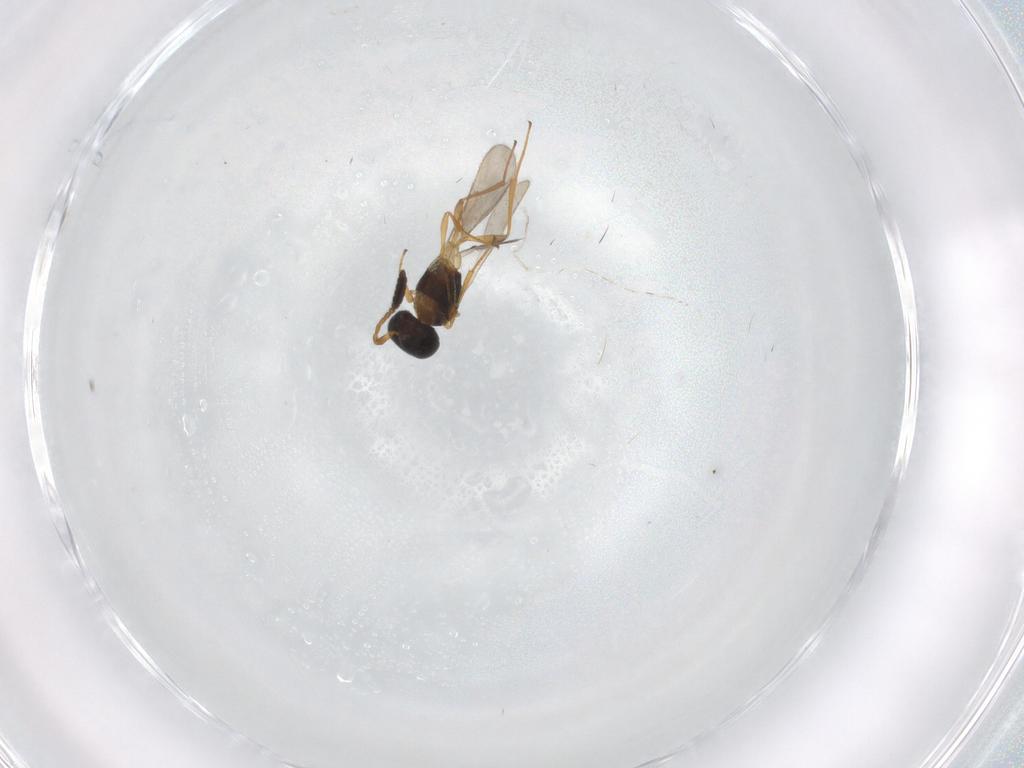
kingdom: Animalia
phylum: Arthropoda
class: Insecta
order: Hymenoptera
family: Scelionidae
